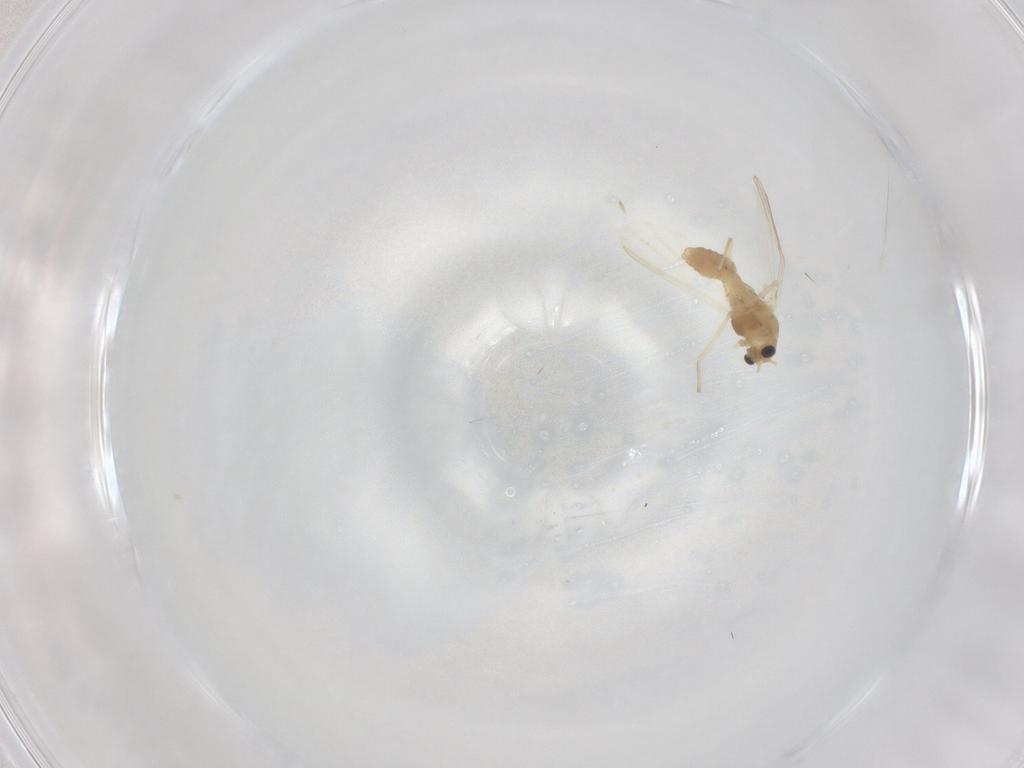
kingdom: Animalia
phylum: Arthropoda
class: Insecta
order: Diptera
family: Chironomidae
